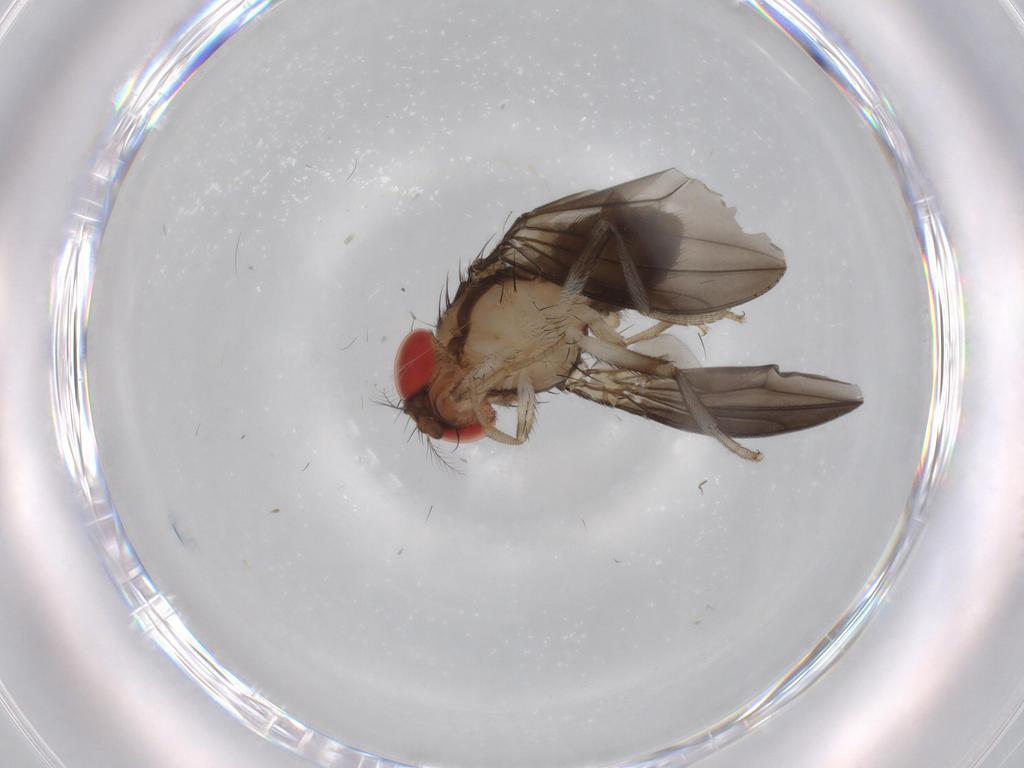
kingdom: Animalia
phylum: Arthropoda
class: Insecta
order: Diptera
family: Drosophilidae
